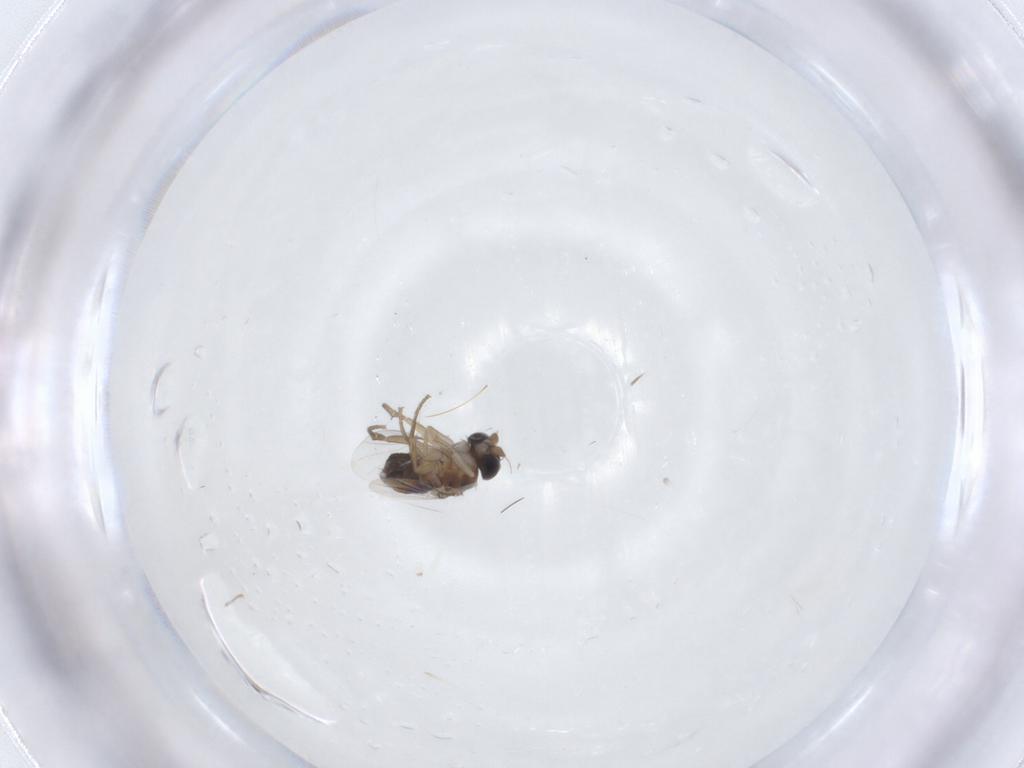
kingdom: Animalia
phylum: Arthropoda
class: Insecta
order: Diptera
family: Phoridae
